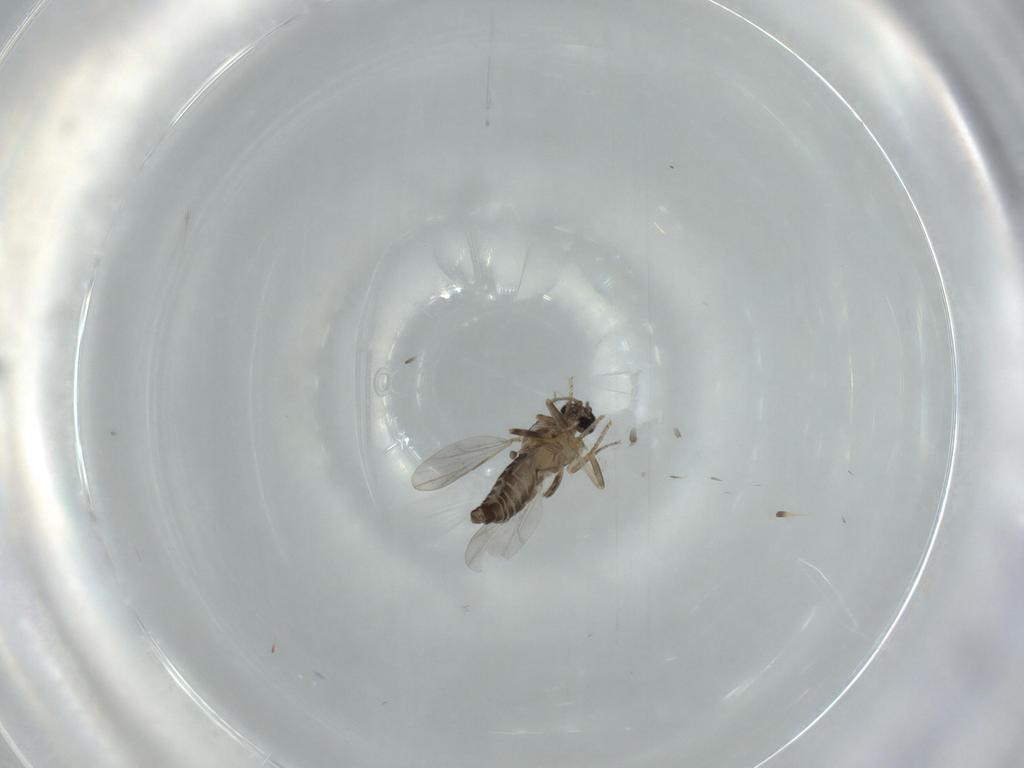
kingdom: Animalia
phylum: Arthropoda
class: Insecta
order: Diptera
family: Ceratopogonidae
